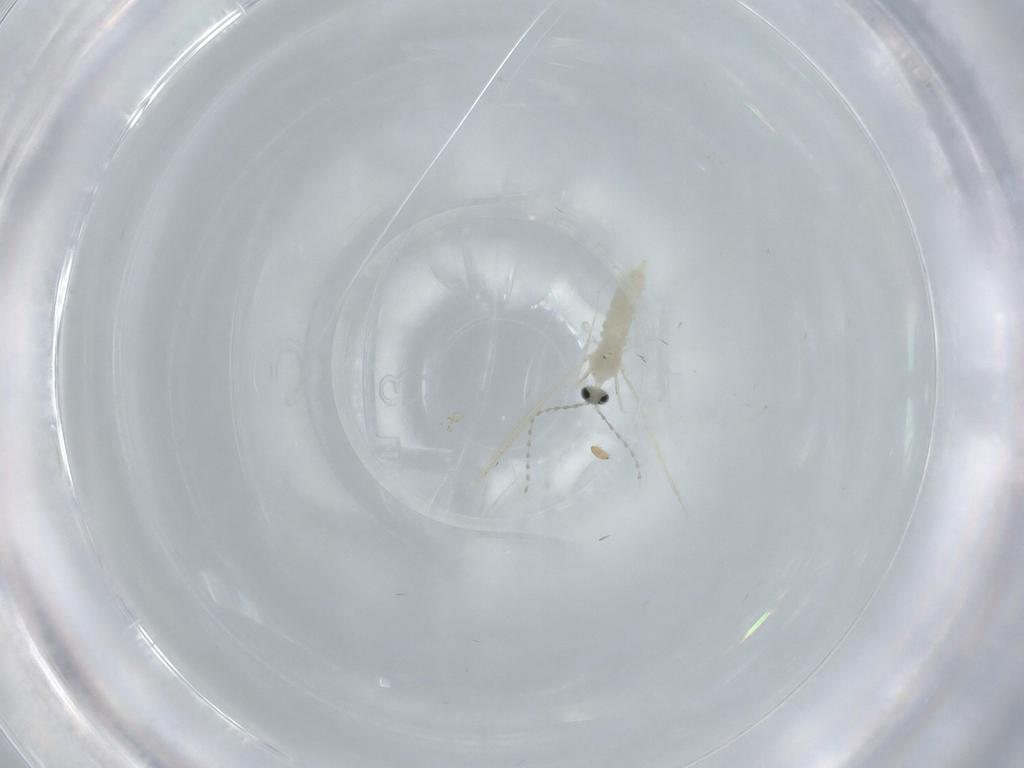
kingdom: Animalia
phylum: Arthropoda
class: Insecta
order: Diptera
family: Cecidomyiidae
